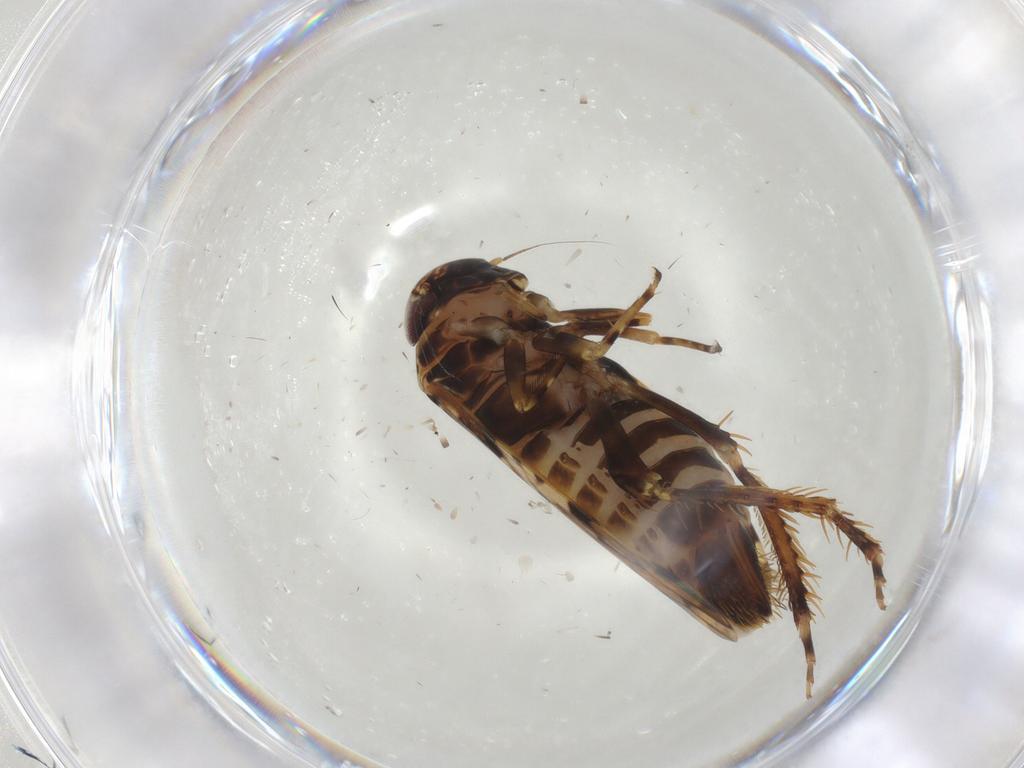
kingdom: Animalia
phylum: Arthropoda
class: Insecta
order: Hemiptera
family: Cicadellidae
